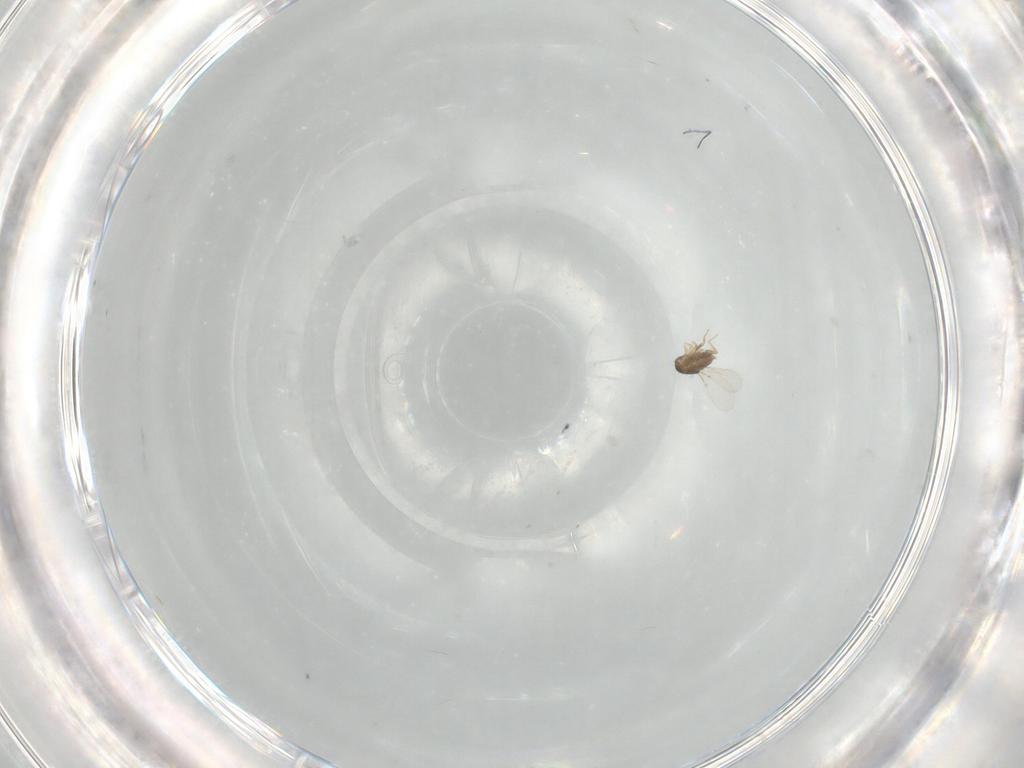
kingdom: Animalia
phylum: Arthropoda
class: Insecta
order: Hymenoptera
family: Encyrtidae
